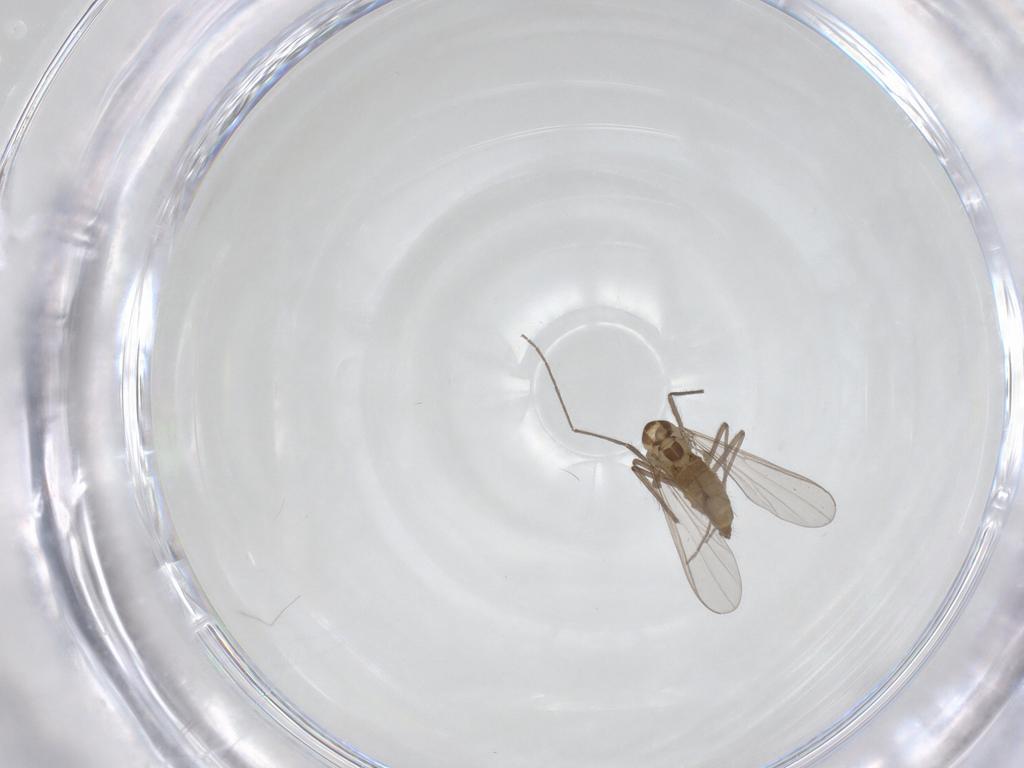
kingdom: Animalia
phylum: Arthropoda
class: Insecta
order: Diptera
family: Chironomidae
